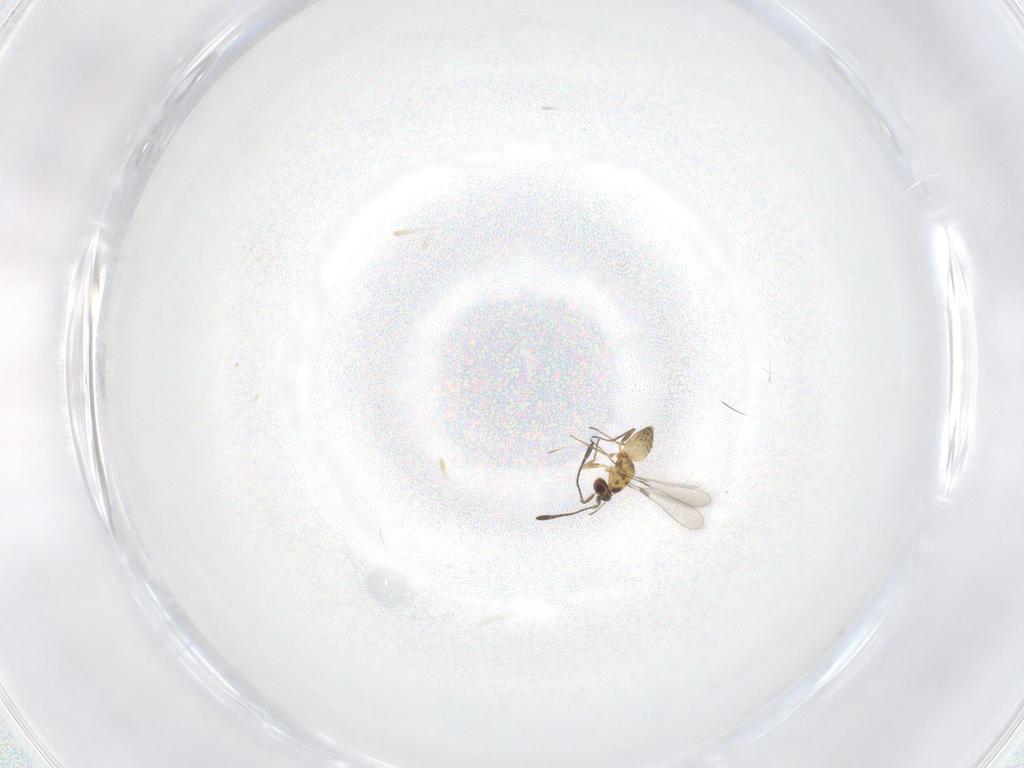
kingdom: Animalia
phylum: Arthropoda
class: Insecta
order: Hymenoptera
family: Mymaridae
